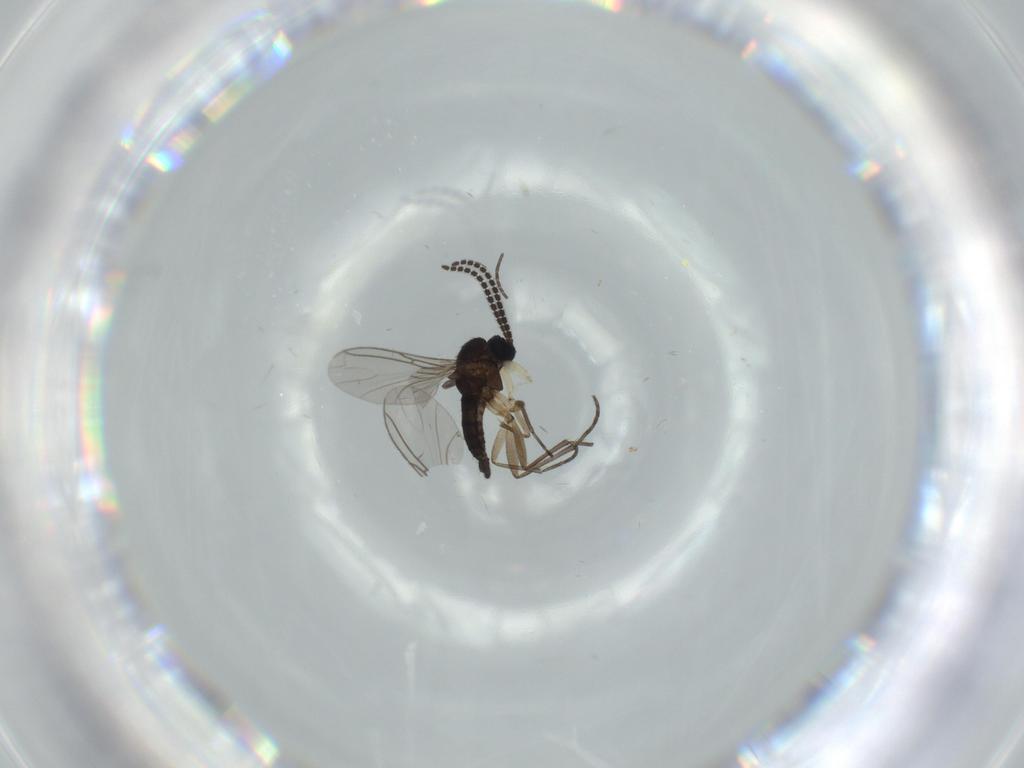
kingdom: Animalia
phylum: Arthropoda
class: Insecta
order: Diptera
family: Sciaridae
